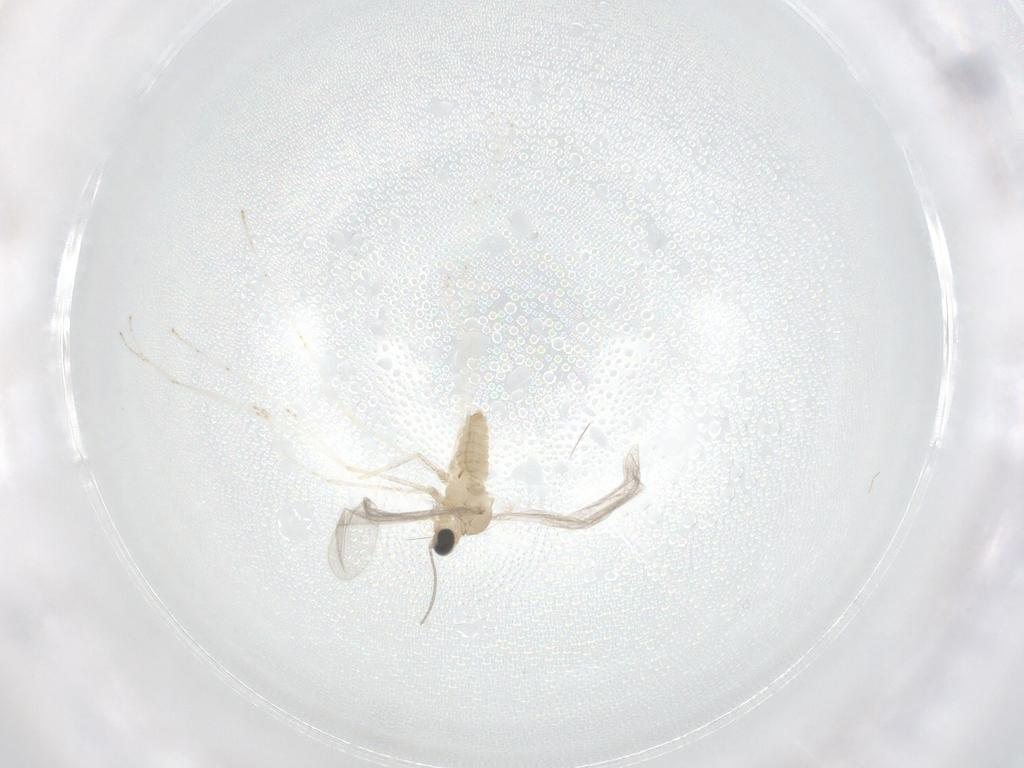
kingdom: Animalia
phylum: Arthropoda
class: Insecta
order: Diptera
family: Cecidomyiidae
